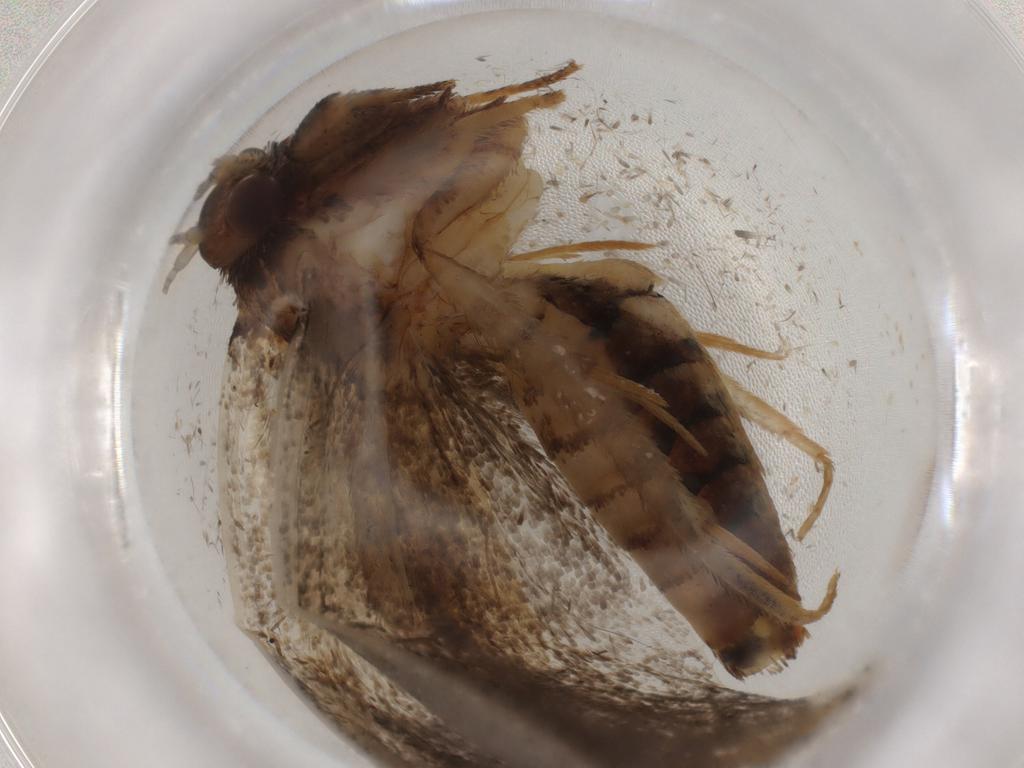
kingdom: Animalia
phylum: Arthropoda
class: Insecta
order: Lepidoptera
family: Tineidae
